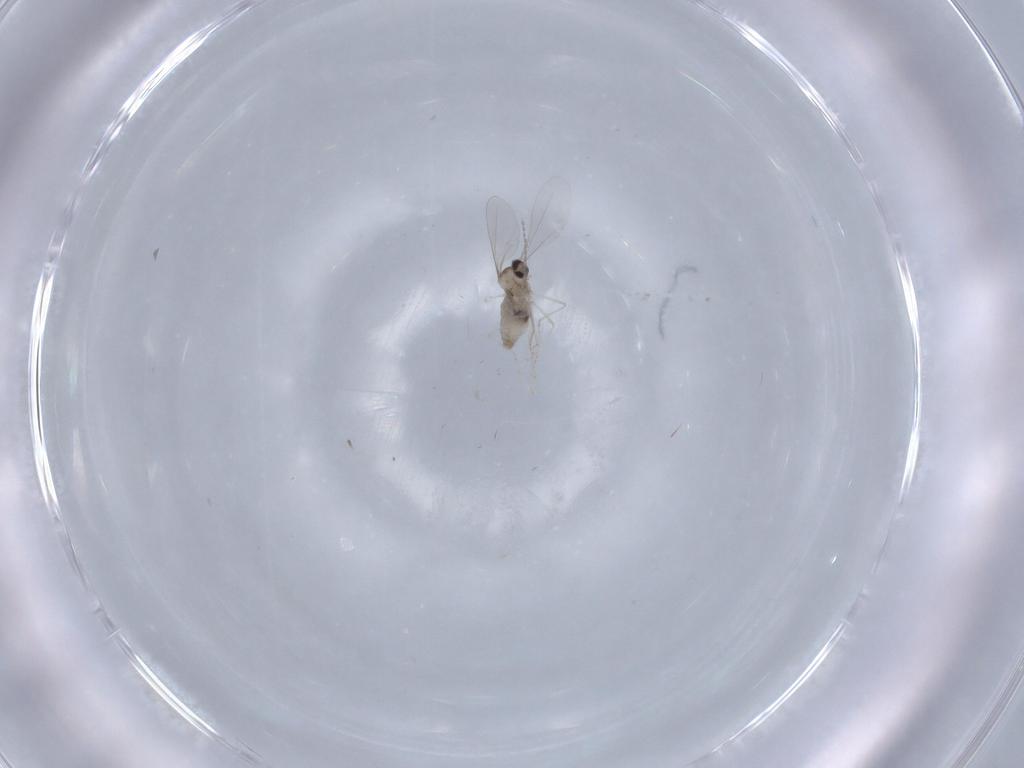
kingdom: Animalia
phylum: Arthropoda
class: Insecta
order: Diptera
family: Cecidomyiidae
